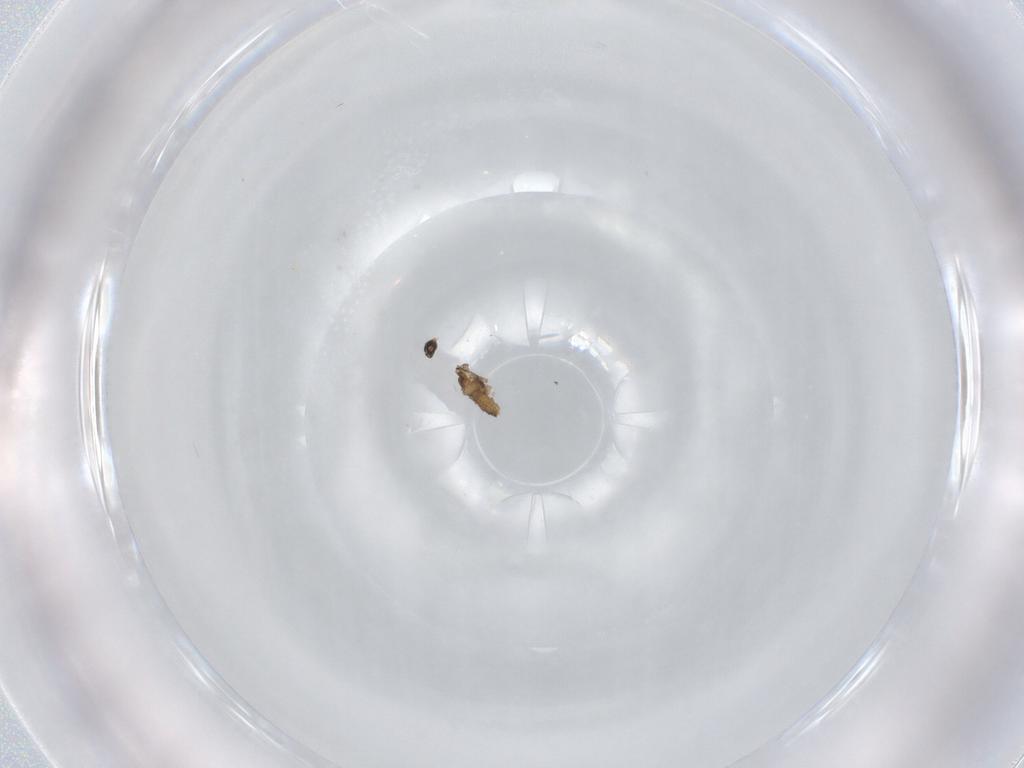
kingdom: Animalia
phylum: Arthropoda
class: Insecta
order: Diptera
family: Cecidomyiidae
